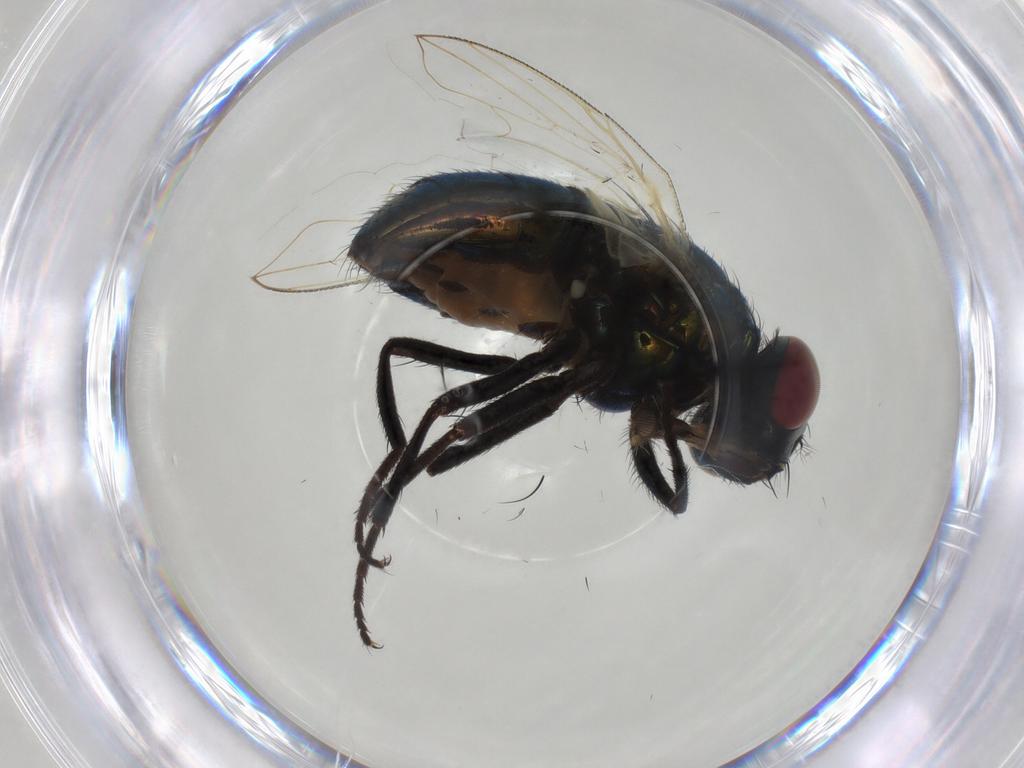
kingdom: Animalia
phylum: Arthropoda
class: Insecta
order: Diptera
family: Muscidae
